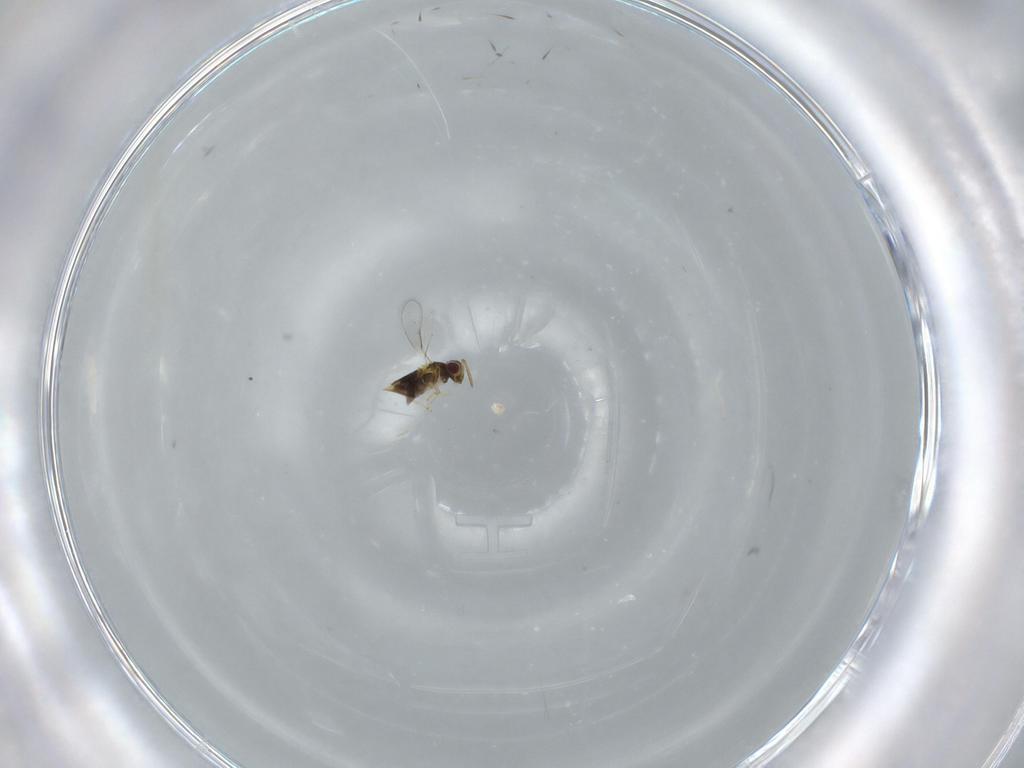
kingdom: Animalia
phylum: Arthropoda
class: Insecta
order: Hymenoptera
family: Aphelinidae
